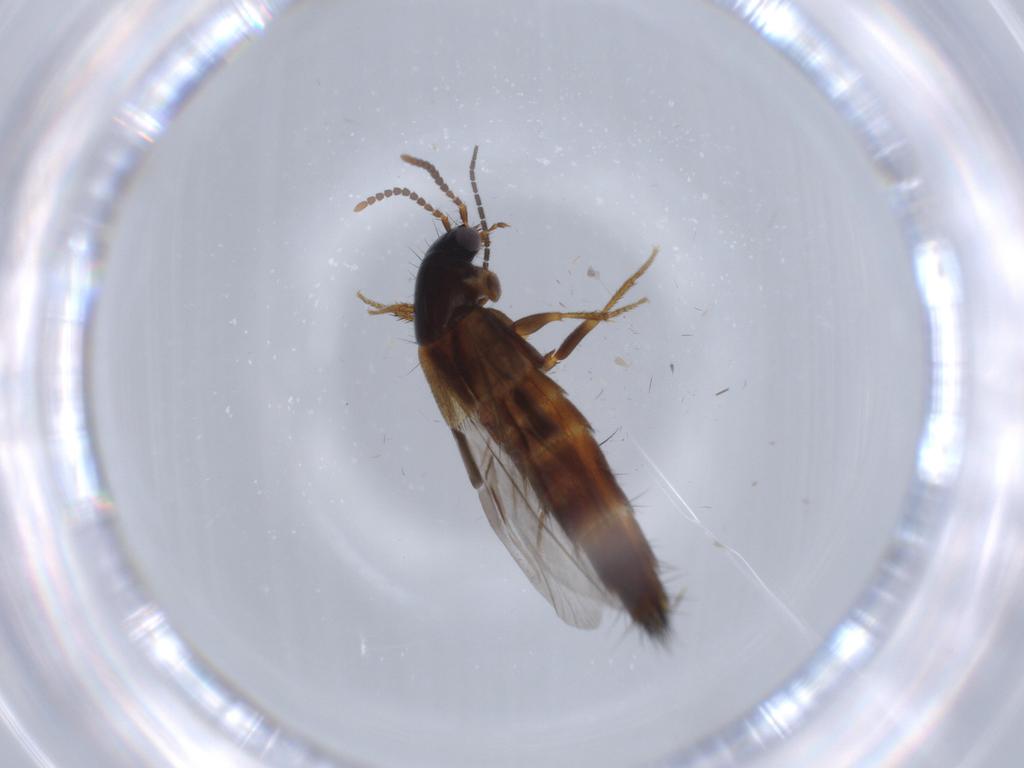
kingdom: Animalia
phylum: Arthropoda
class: Insecta
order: Coleoptera
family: Staphylinidae
